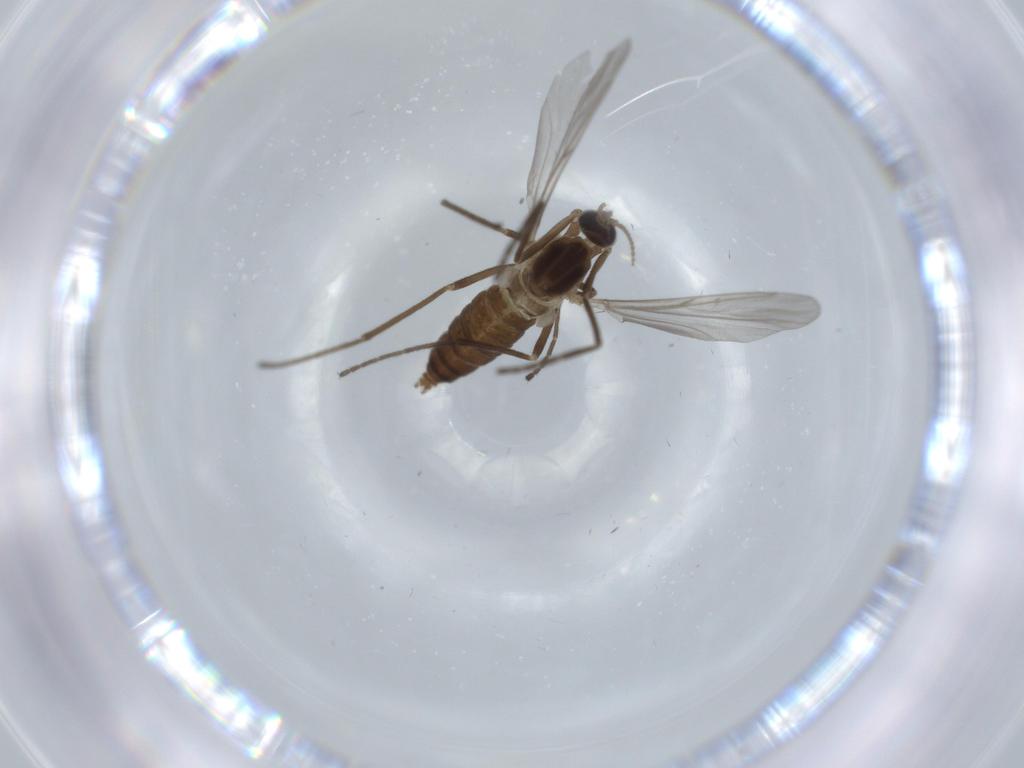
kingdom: Animalia
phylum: Arthropoda
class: Insecta
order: Diptera
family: Cecidomyiidae
